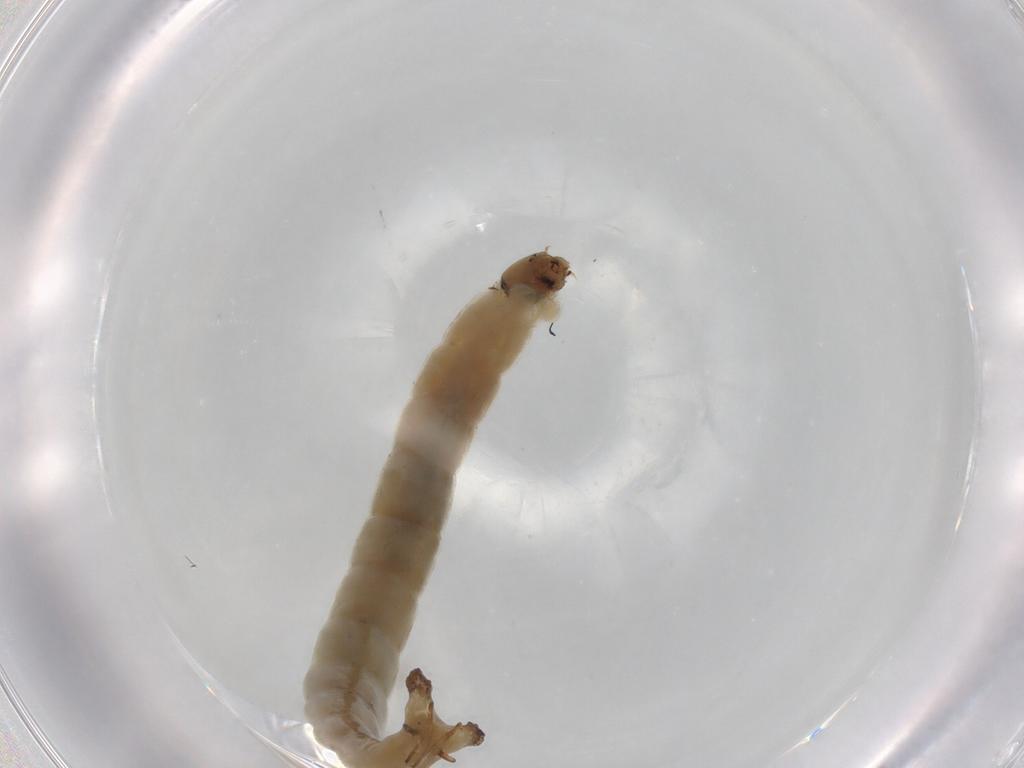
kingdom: Animalia
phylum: Arthropoda
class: Insecta
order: Diptera
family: Chironomidae
